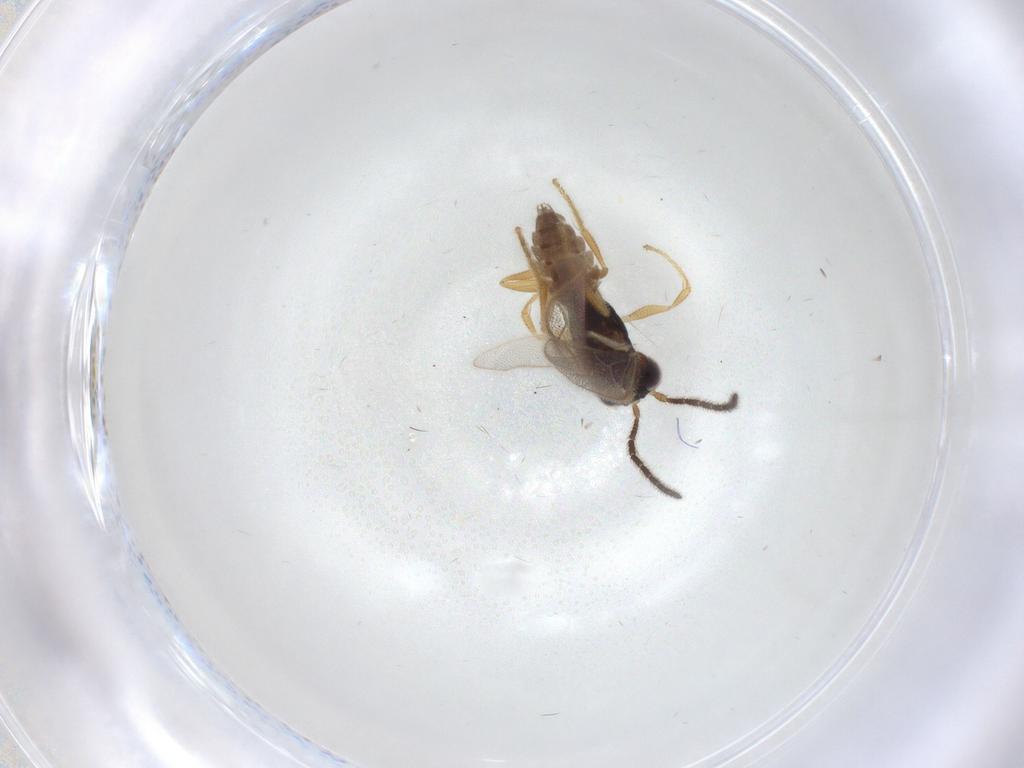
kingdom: Animalia
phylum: Arthropoda
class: Insecta
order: Hymenoptera
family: Dryinidae
